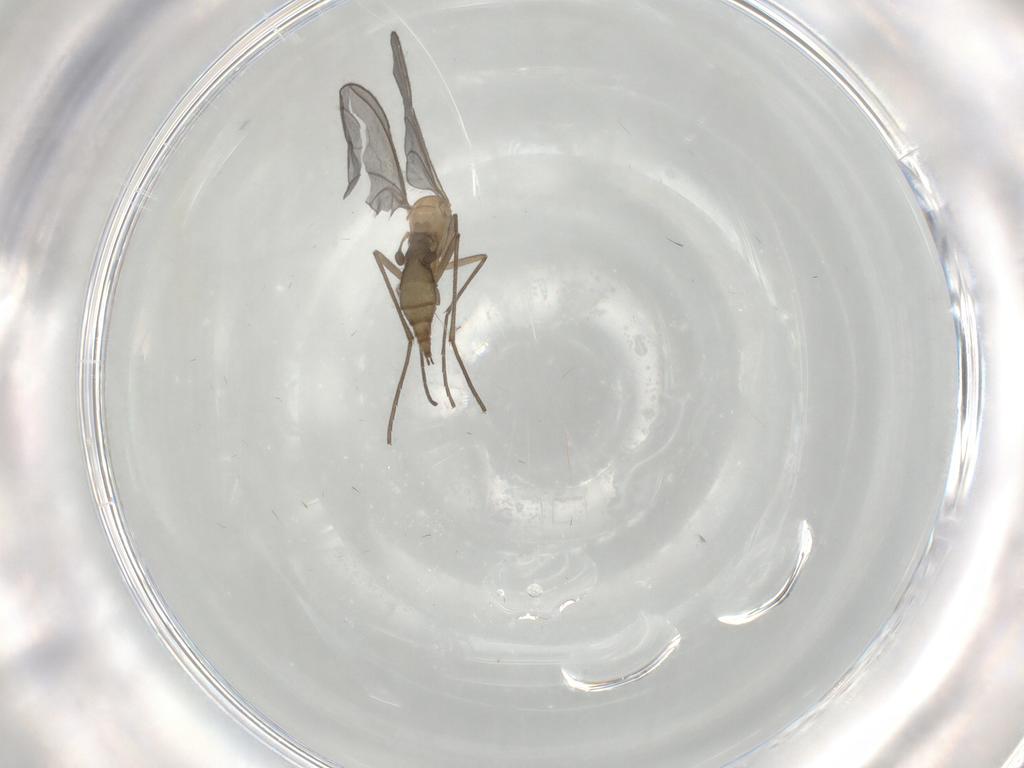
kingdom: Animalia
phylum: Arthropoda
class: Insecta
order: Diptera
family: Sciaridae
